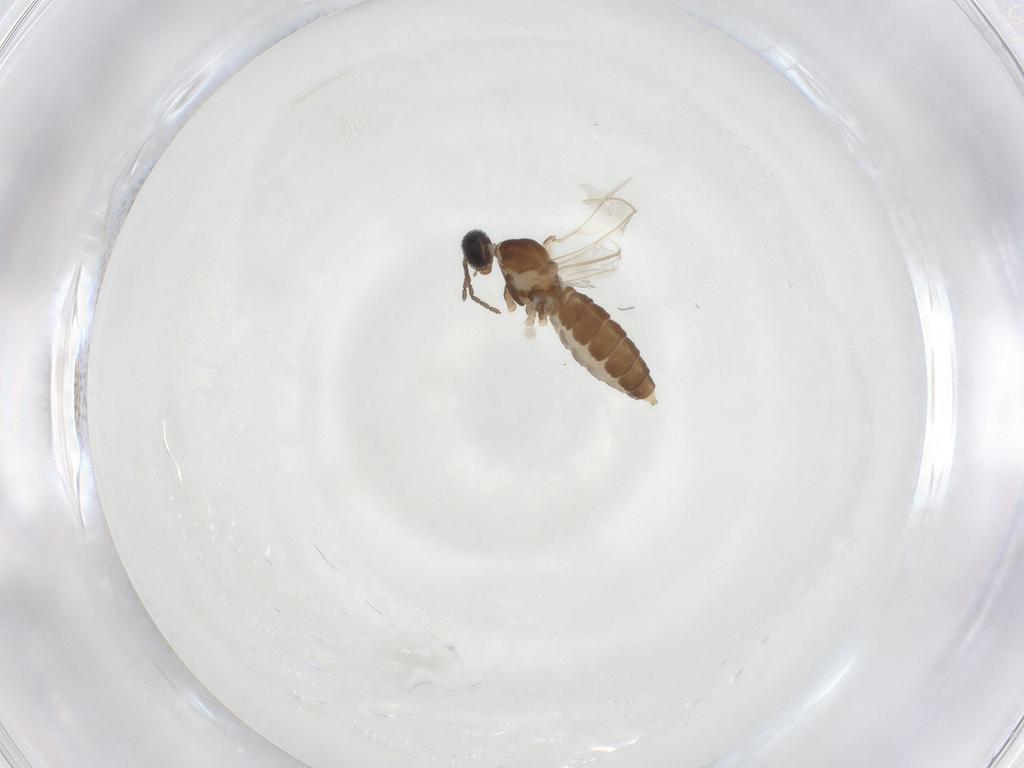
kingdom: Animalia
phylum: Arthropoda
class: Insecta
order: Diptera
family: Cecidomyiidae
